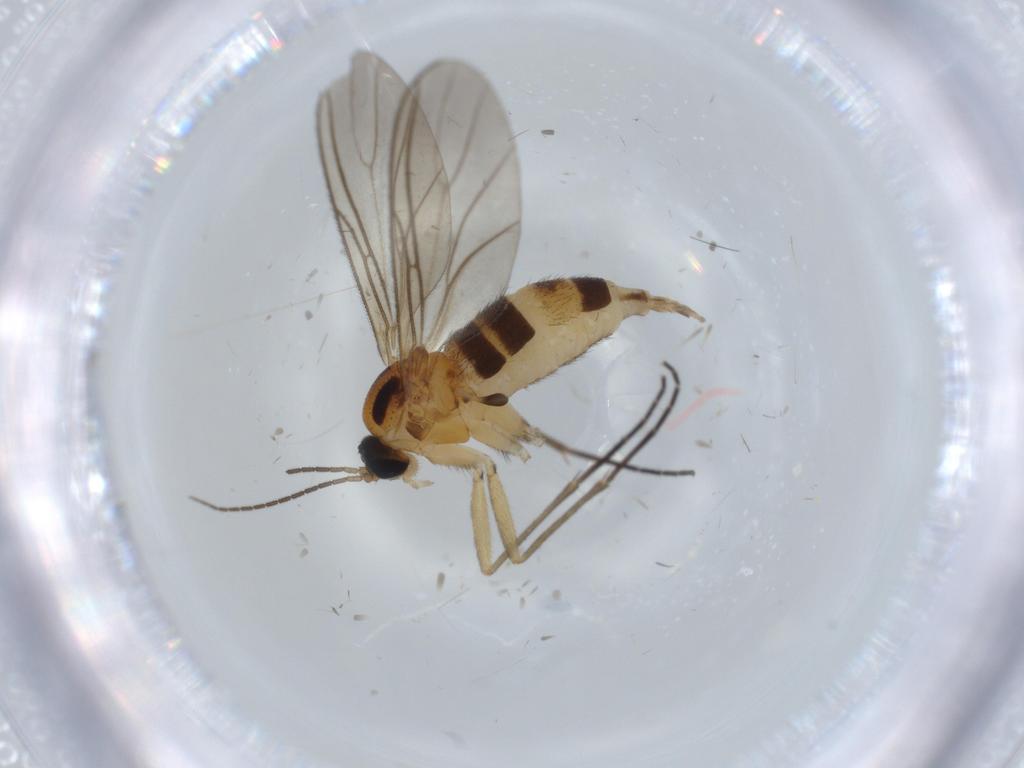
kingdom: Animalia
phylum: Arthropoda
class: Insecta
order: Diptera
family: Sciaridae
